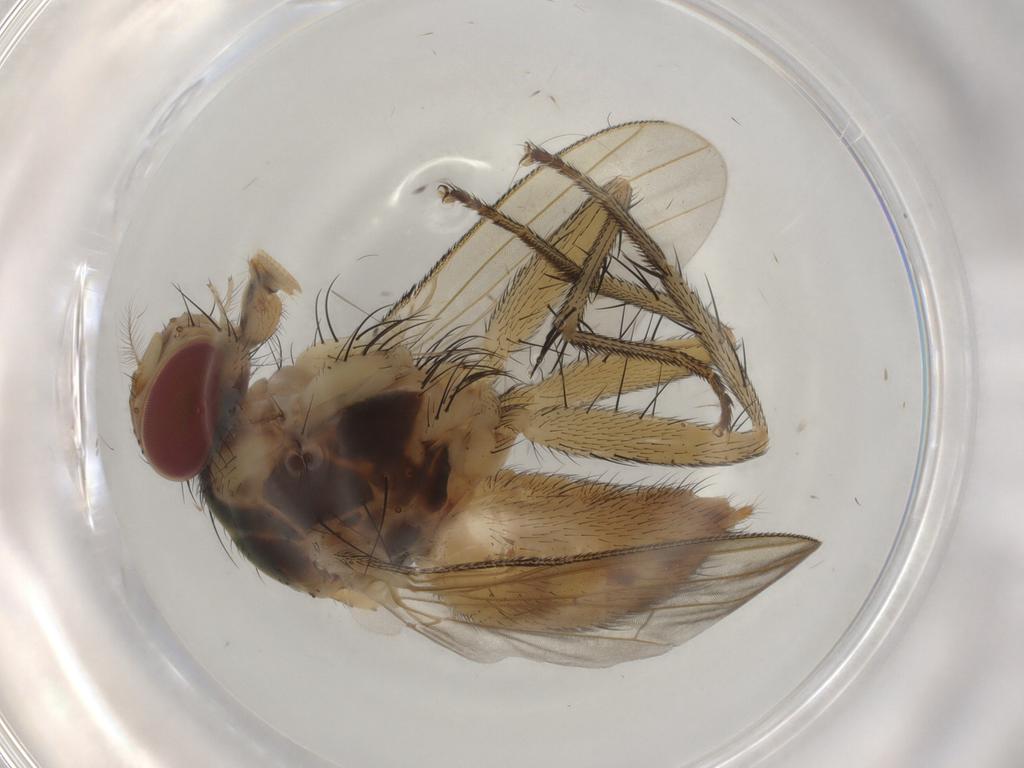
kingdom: Animalia
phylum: Arthropoda
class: Insecta
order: Diptera
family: Muscidae
